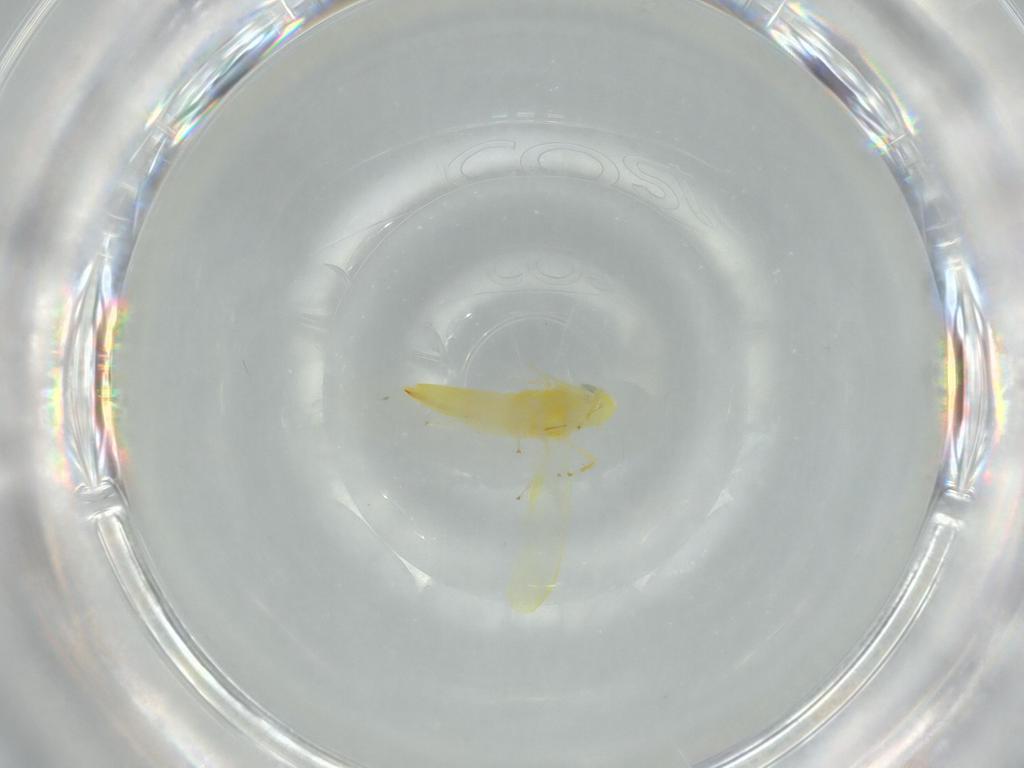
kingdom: Animalia
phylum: Arthropoda
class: Insecta
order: Hemiptera
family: Cicadellidae
